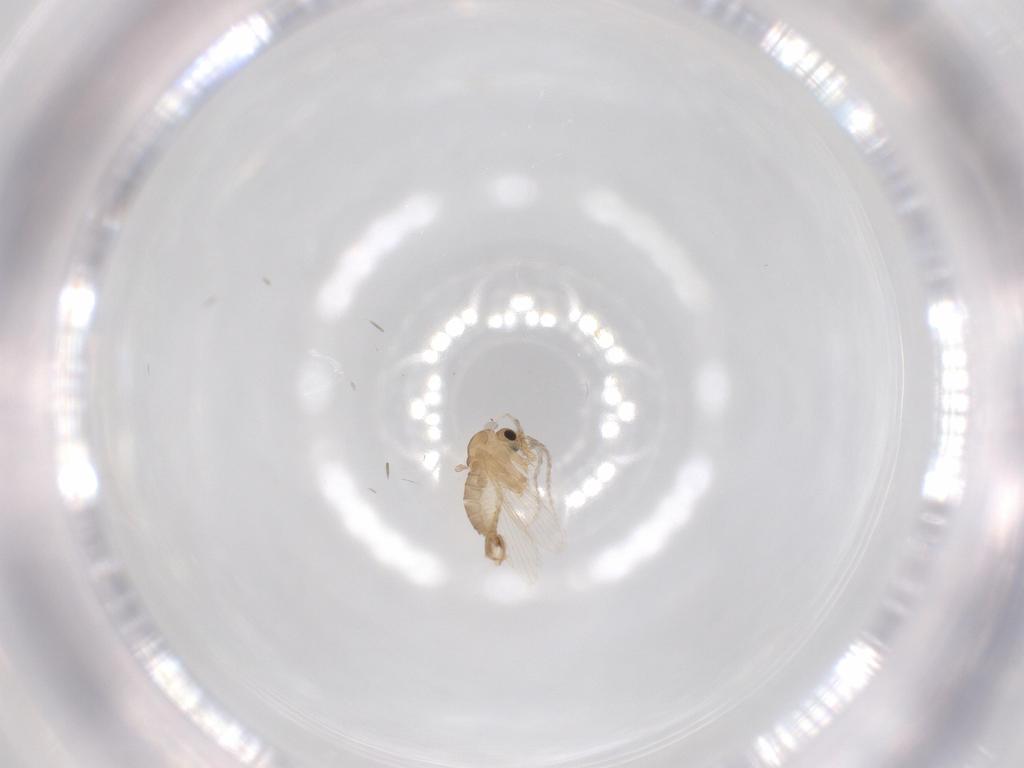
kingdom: Animalia
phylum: Arthropoda
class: Insecta
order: Diptera
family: Psychodidae
